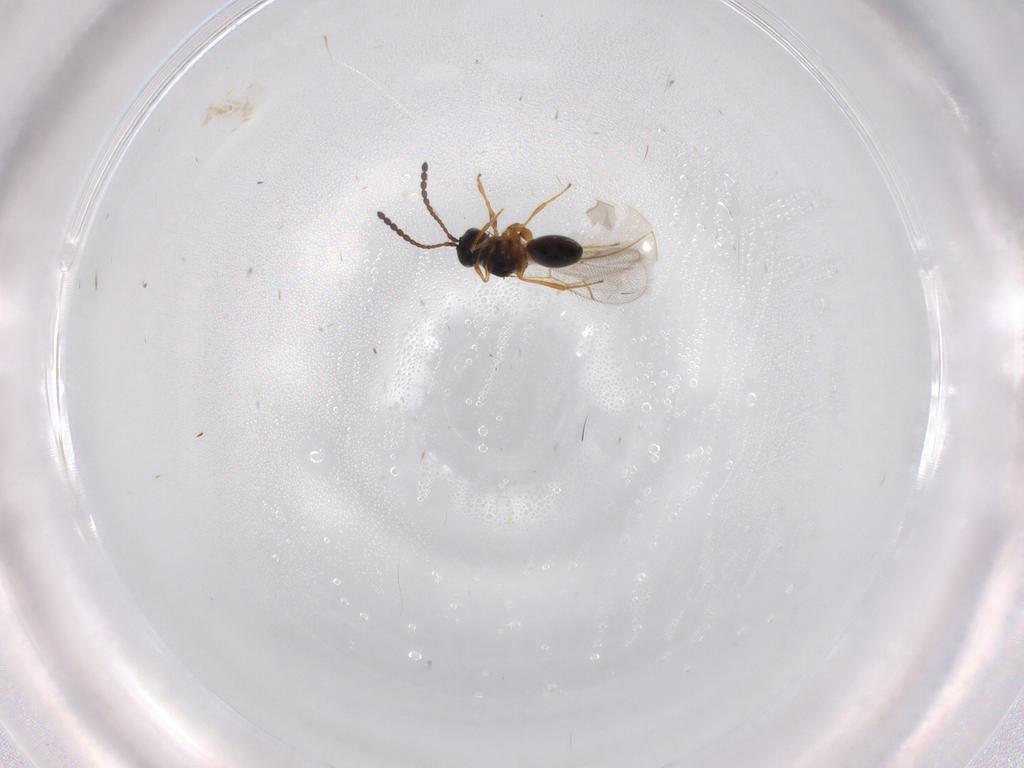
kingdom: Animalia
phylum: Arthropoda
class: Insecta
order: Hymenoptera
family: Figitidae
